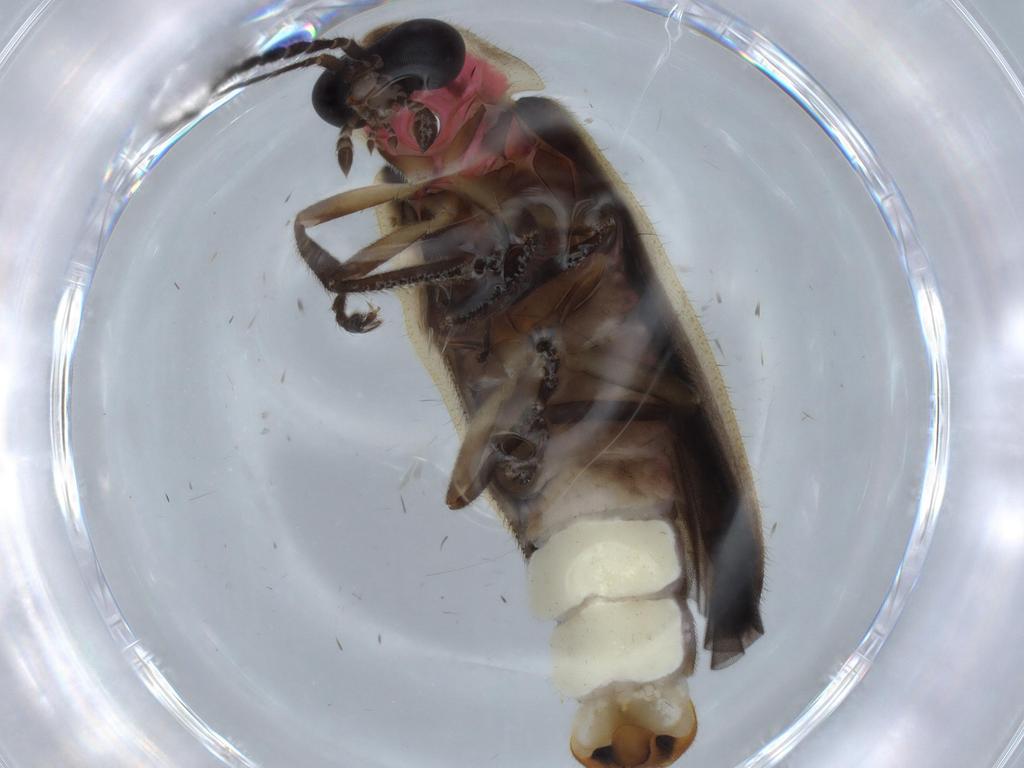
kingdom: Animalia
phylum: Arthropoda
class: Insecta
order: Coleoptera
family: Lampyridae
